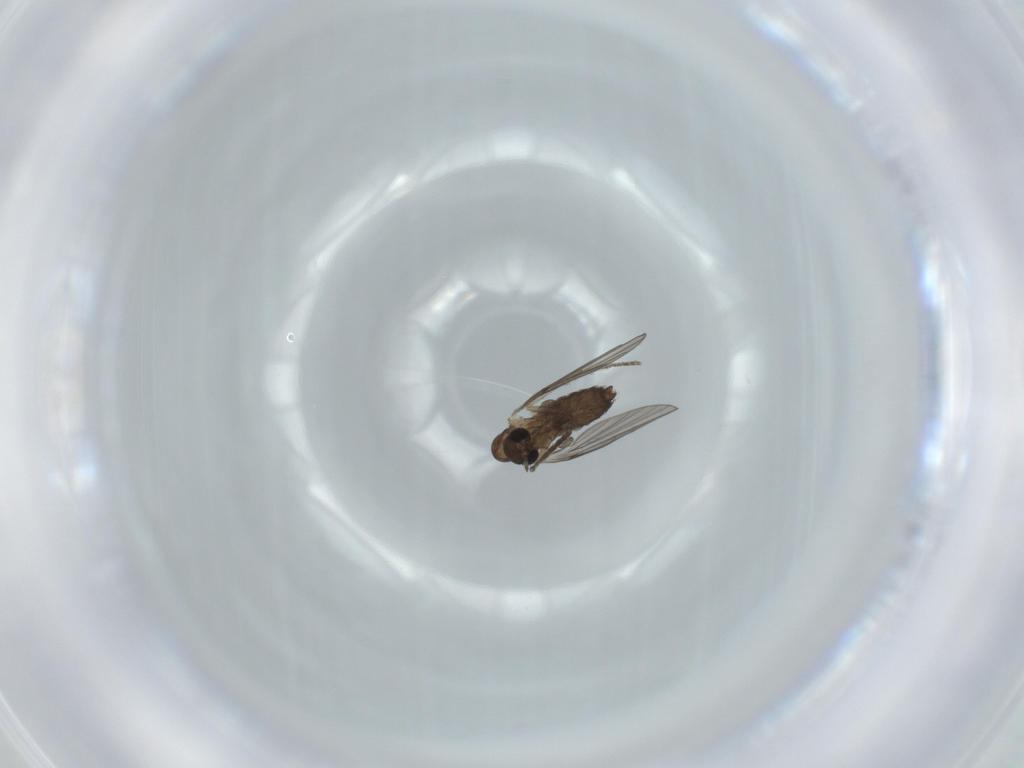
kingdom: Animalia
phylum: Arthropoda
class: Insecta
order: Diptera
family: Psychodidae
